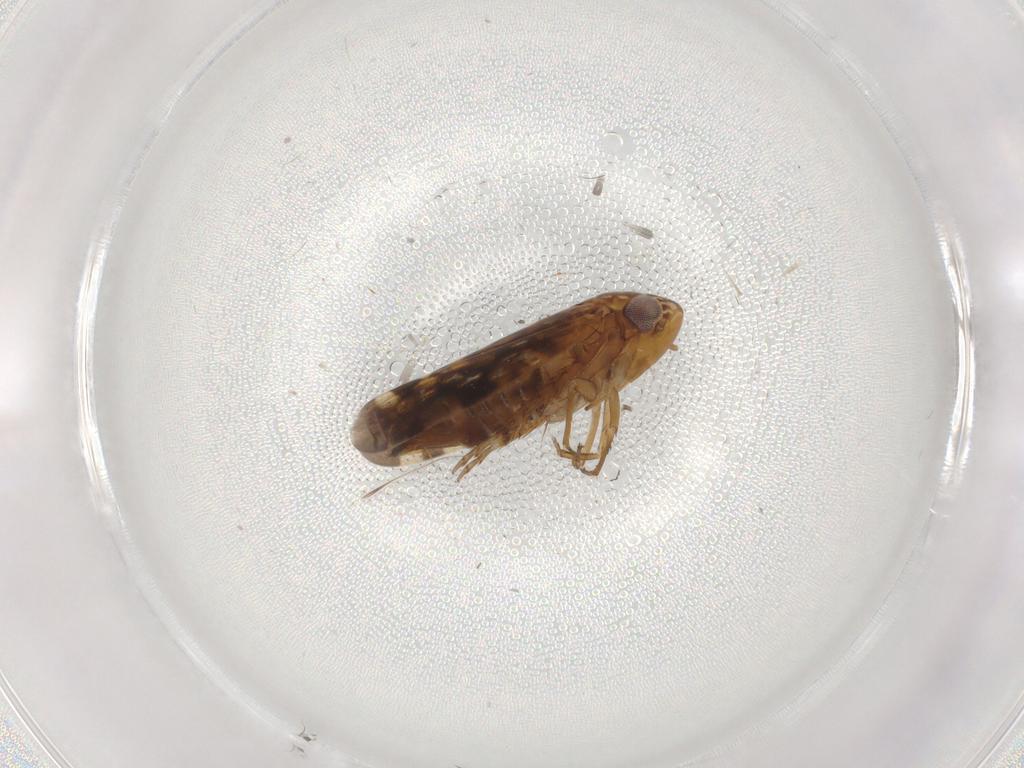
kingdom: Animalia
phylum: Arthropoda
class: Insecta
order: Hemiptera
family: Cicadellidae
